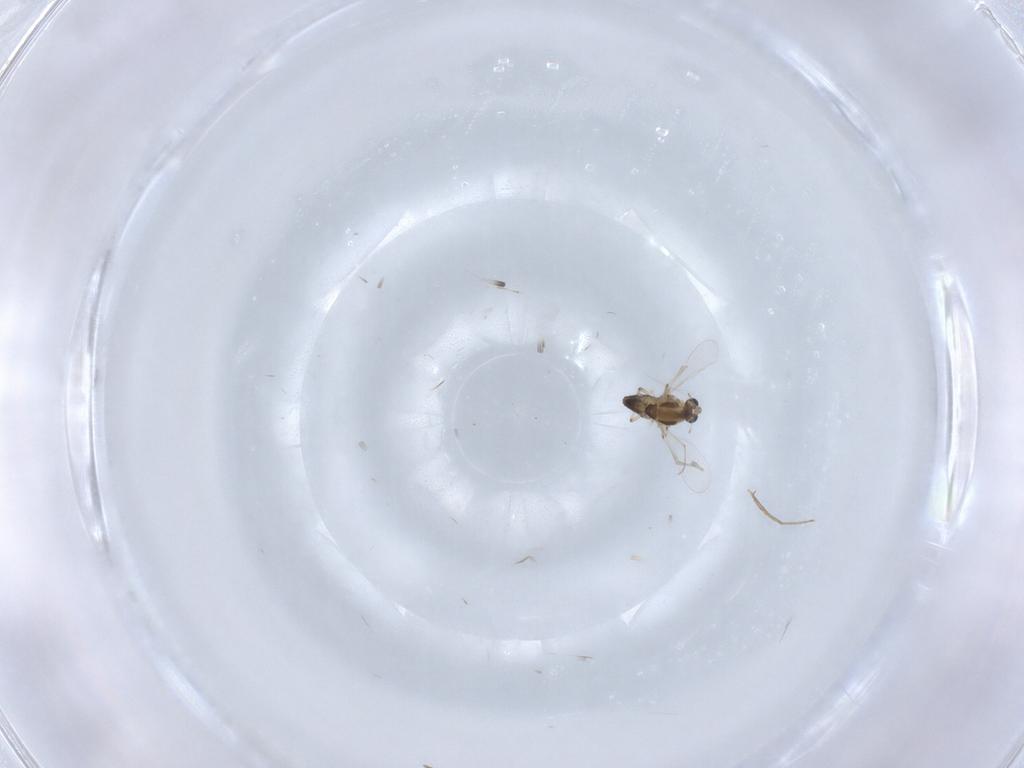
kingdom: Animalia
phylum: Arthropoda
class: Insecta
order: Diptera
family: Chironomidae
